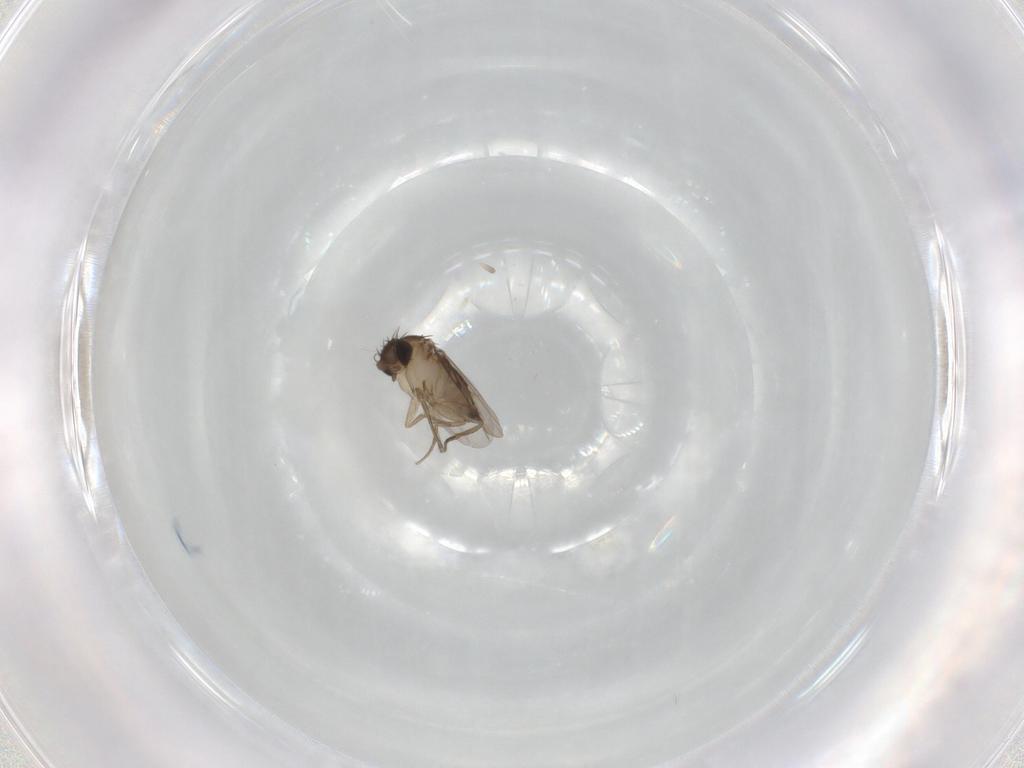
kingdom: Animalia
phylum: Arthropoda
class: Insecta
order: Diptera
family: Phoridae
